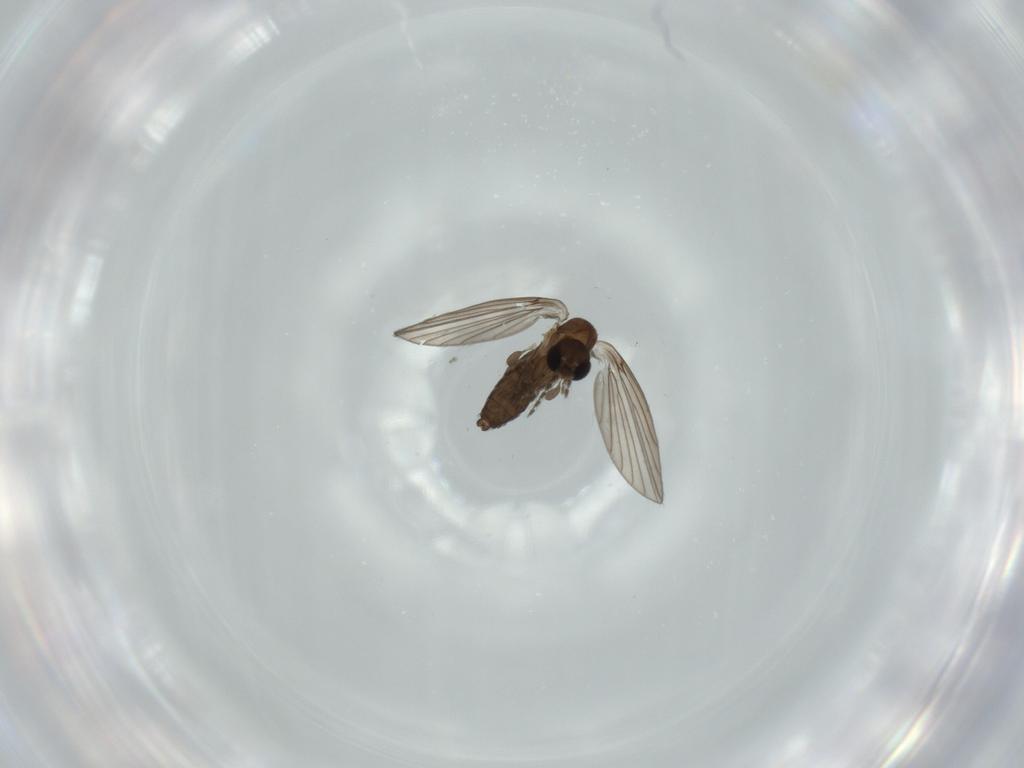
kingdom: Animalia
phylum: Arthropoda
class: Insecta
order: Diptera
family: Psychodidae
